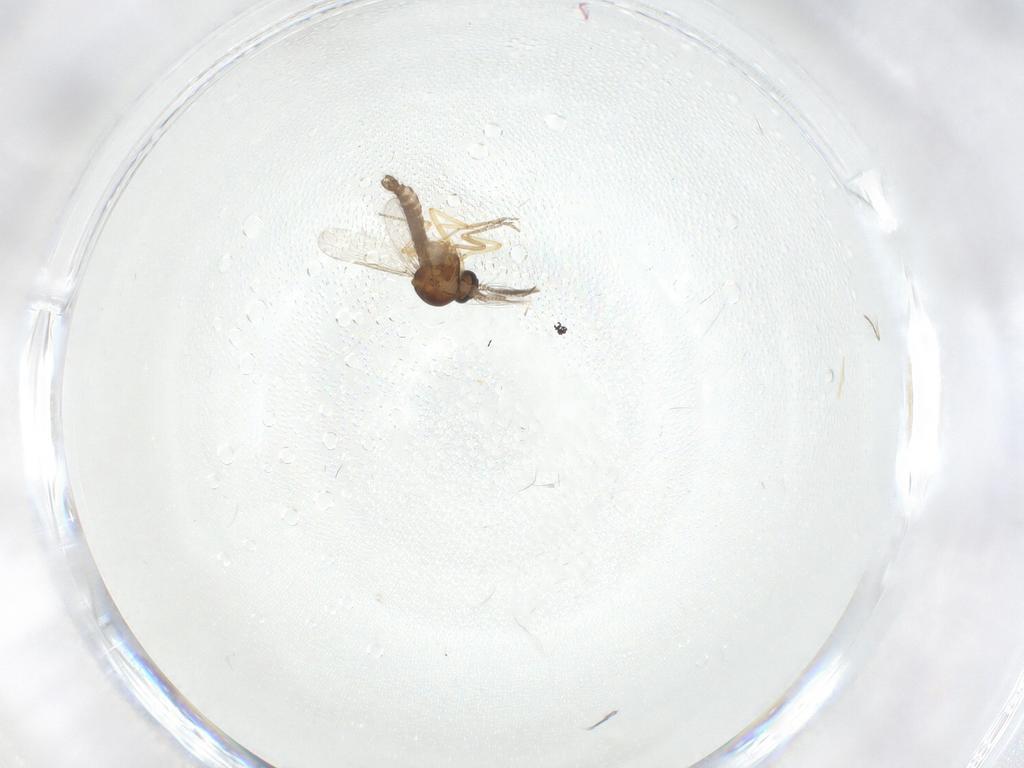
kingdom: Animalia
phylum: Arthropoda
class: Insecta
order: Diptera
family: Ceratopogonidae
